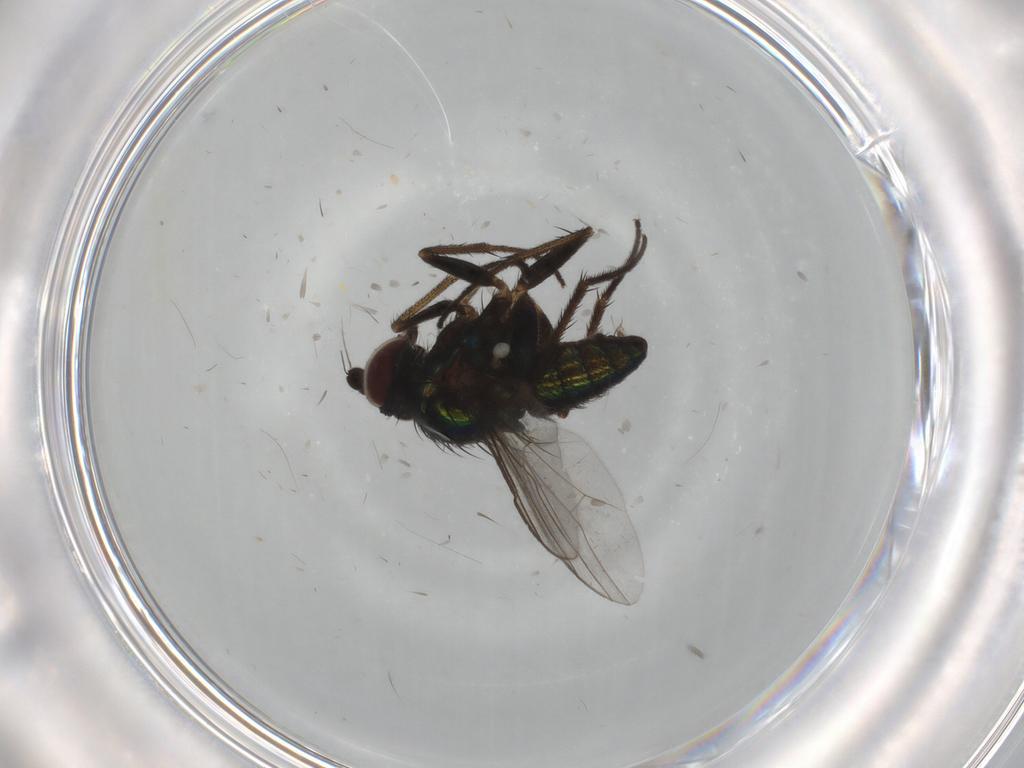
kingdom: Animalia
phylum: Arthropoda
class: Insecta
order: Diptera
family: Dolichopodidae
